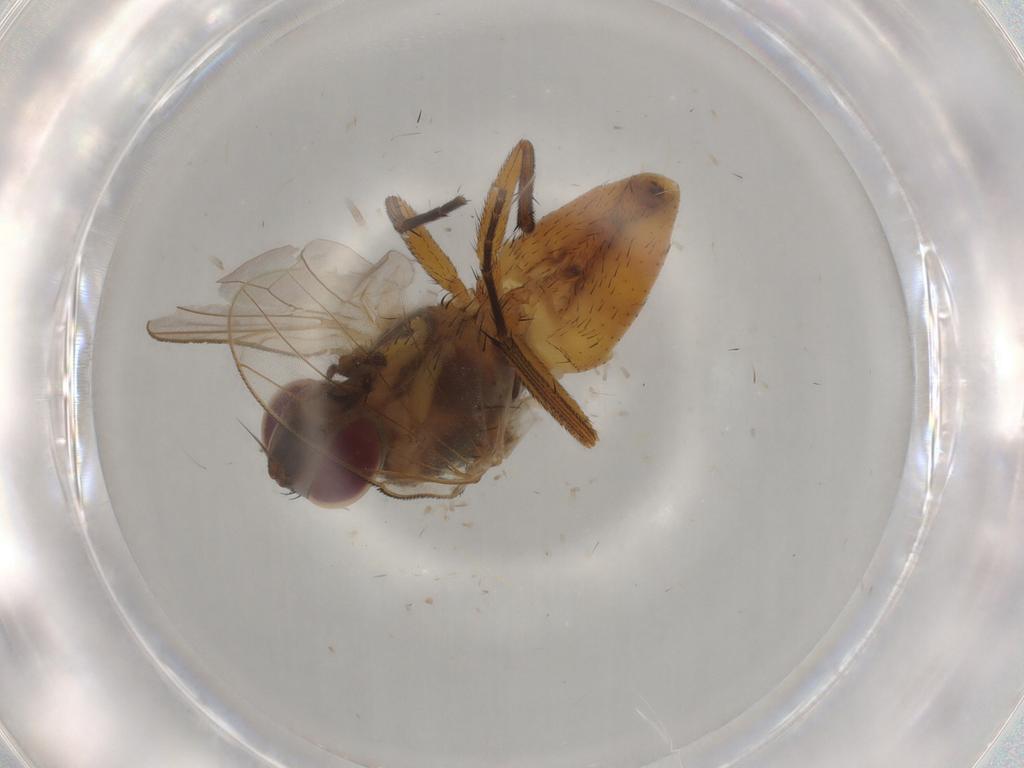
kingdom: Animalia
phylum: Arthropoda
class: Insecta
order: Diptera
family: Muscidae
